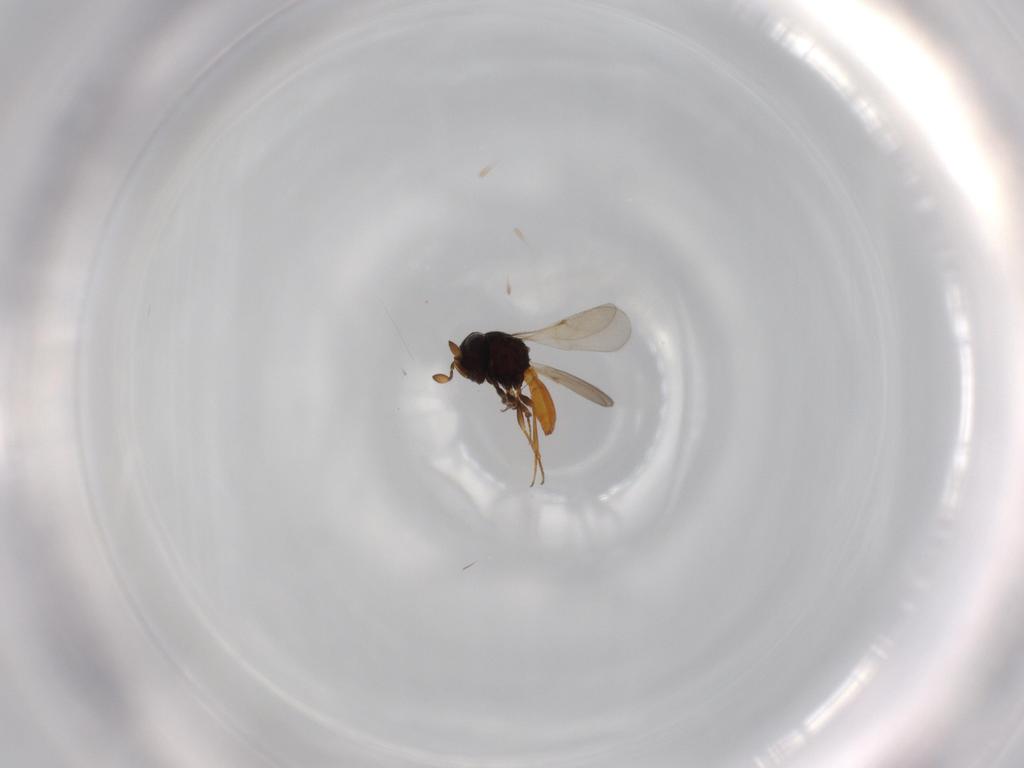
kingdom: Animalia
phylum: Arthropoda
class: Insecta
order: Hymenoptera
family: Scelionidae
